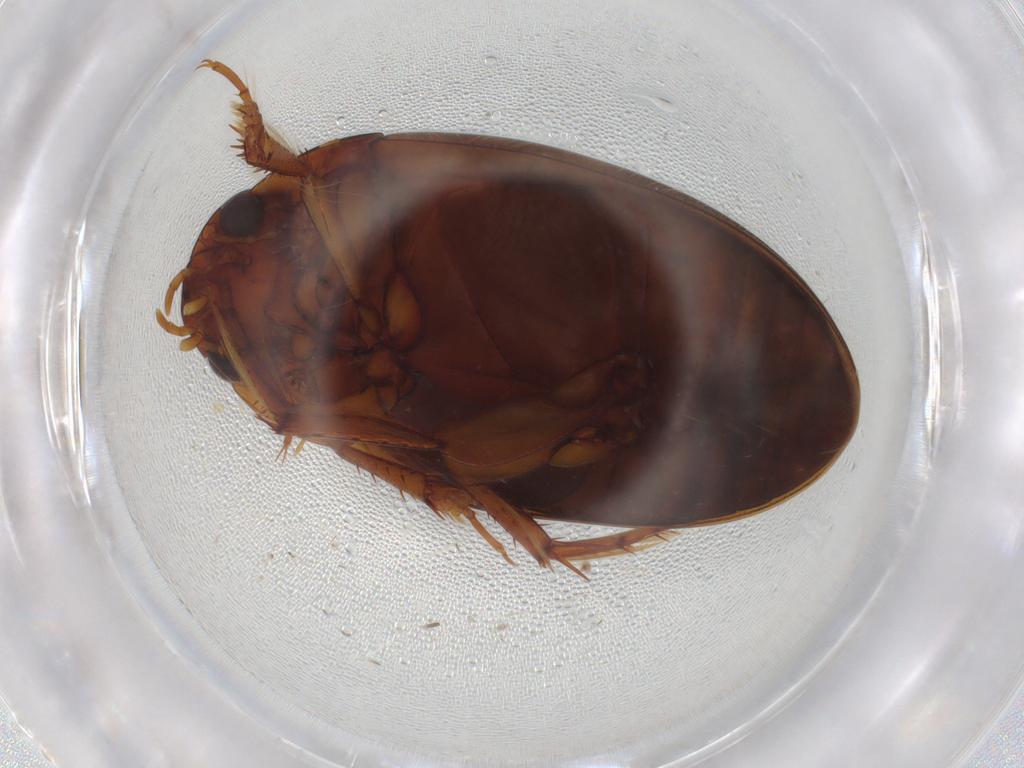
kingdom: Animalia
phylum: Arthropoda
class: Insecta
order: Coleoptera
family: Dytiscidae
